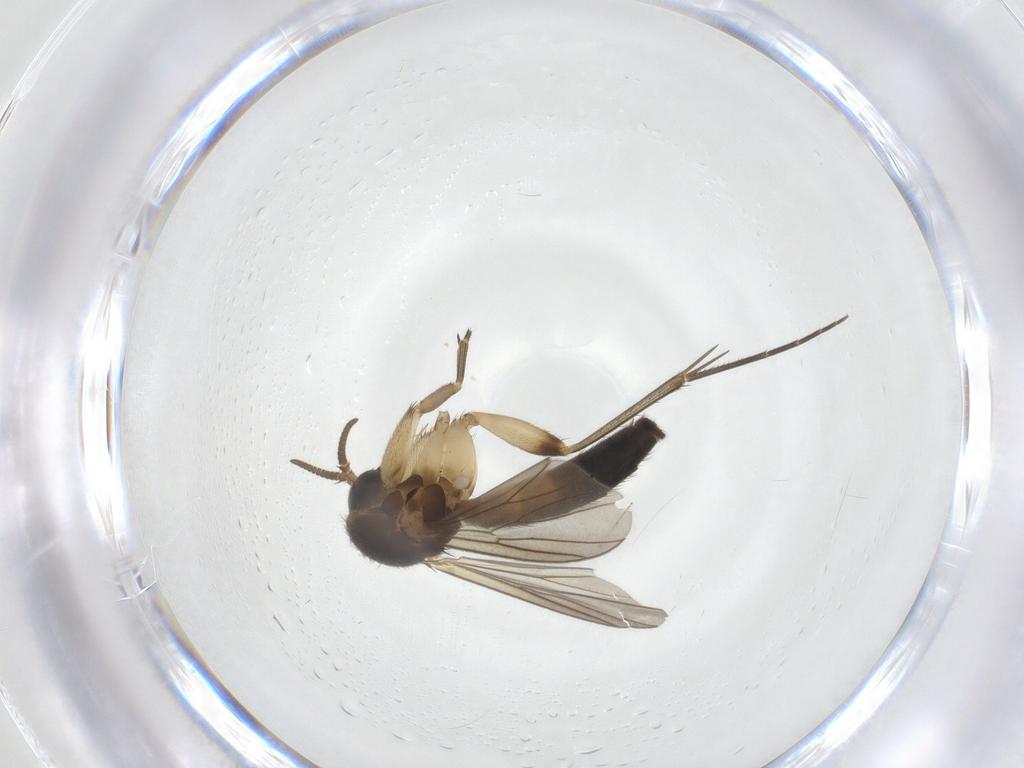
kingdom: Animalia
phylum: Arthropoda
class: Insecta
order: Diptera
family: Mycetophilidae
